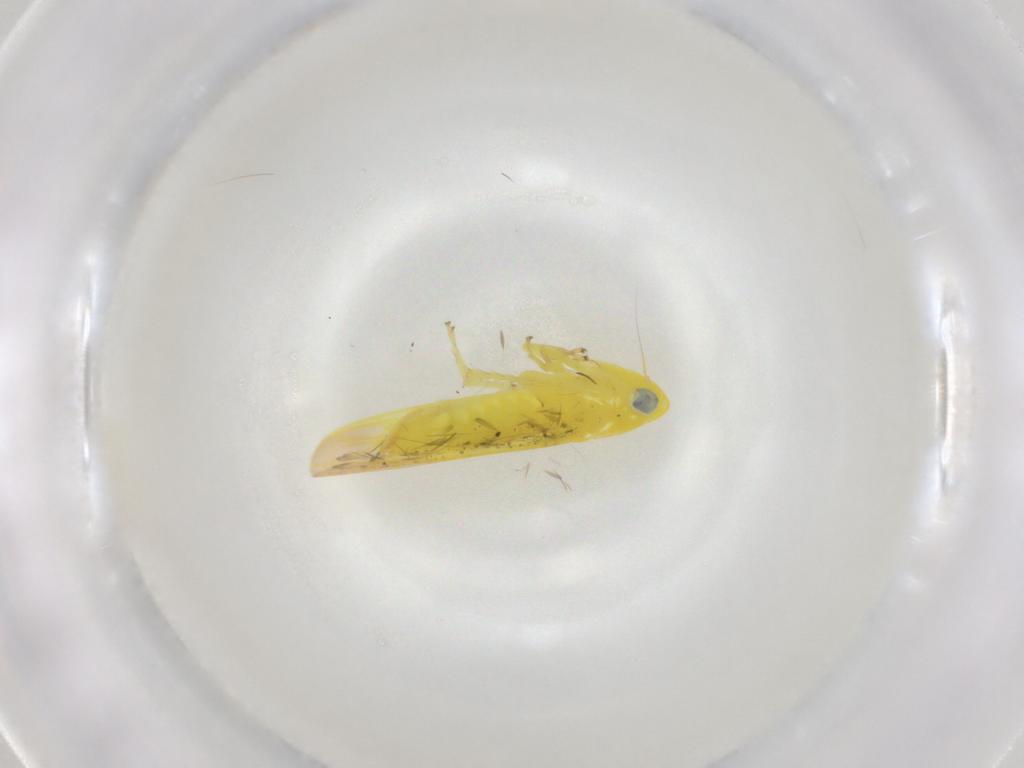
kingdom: Animalia
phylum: Arthropoda
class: Insecta
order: Hemiptera
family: Cicadellidae
